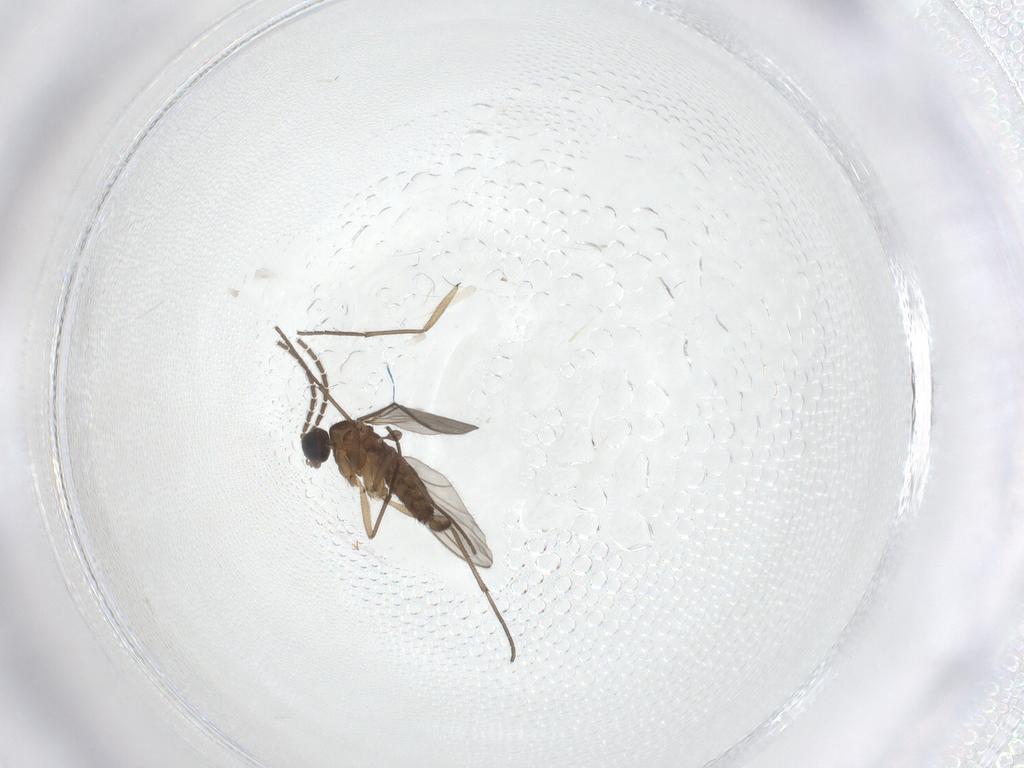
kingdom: Animalia
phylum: Arthropoda
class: Insecta
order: Diptera
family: Sciaridae
